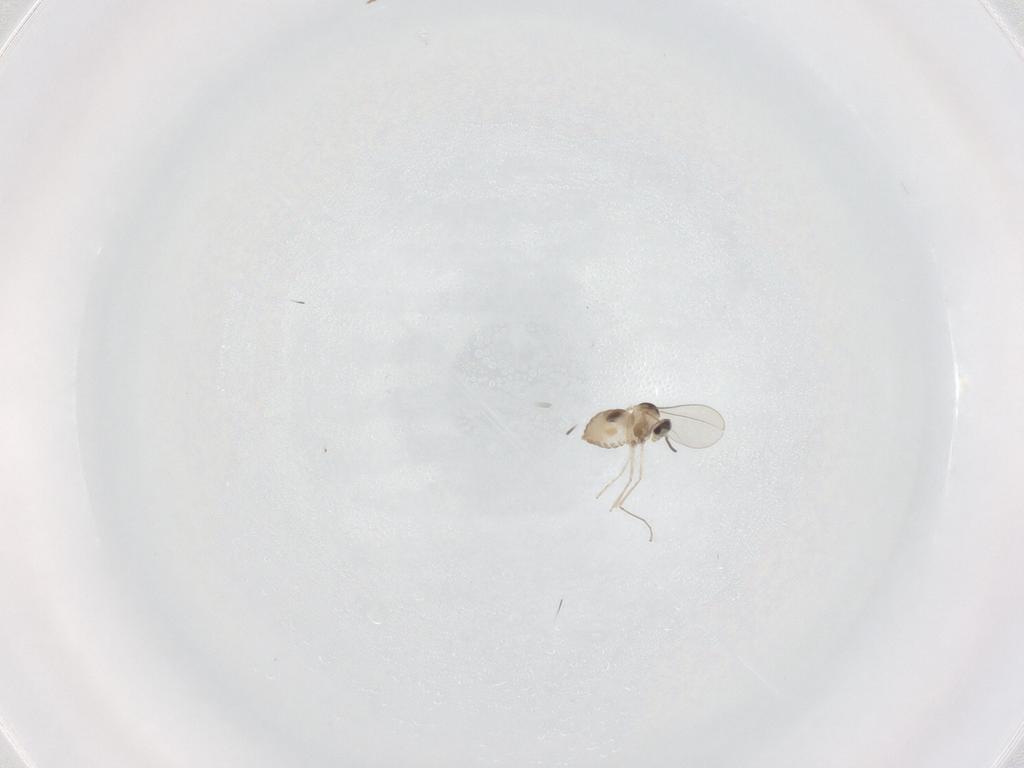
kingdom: Animalia
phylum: Arthropoda
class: Insecta
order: Diptera
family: Cecidomyiidae
